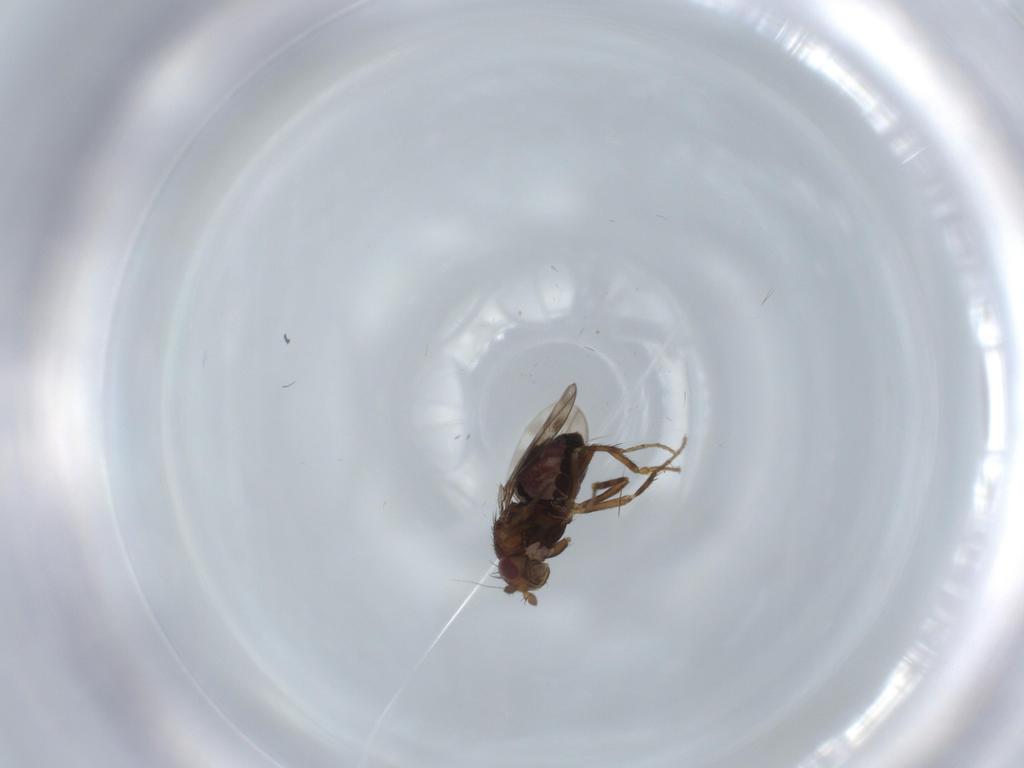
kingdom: Animalia
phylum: Arthropoda
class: Insecta
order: Diptera
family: Sphaeroceridae
